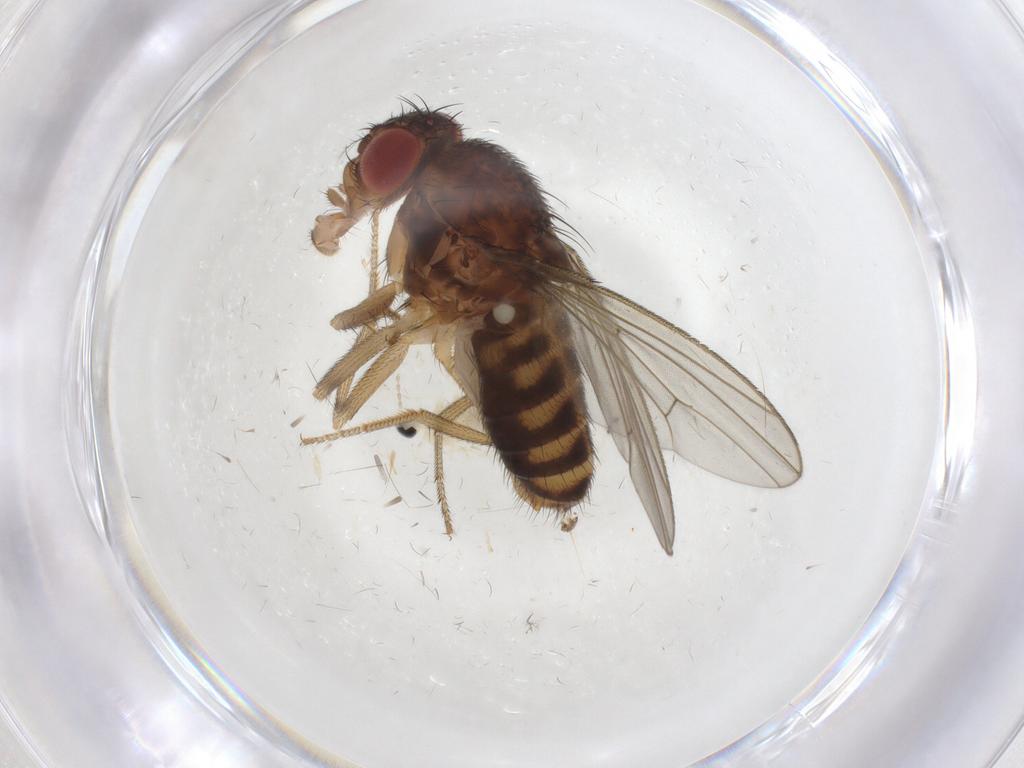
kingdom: Animalia
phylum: Arthropoda
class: Insecta
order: Diptera
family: Drosophilidae
